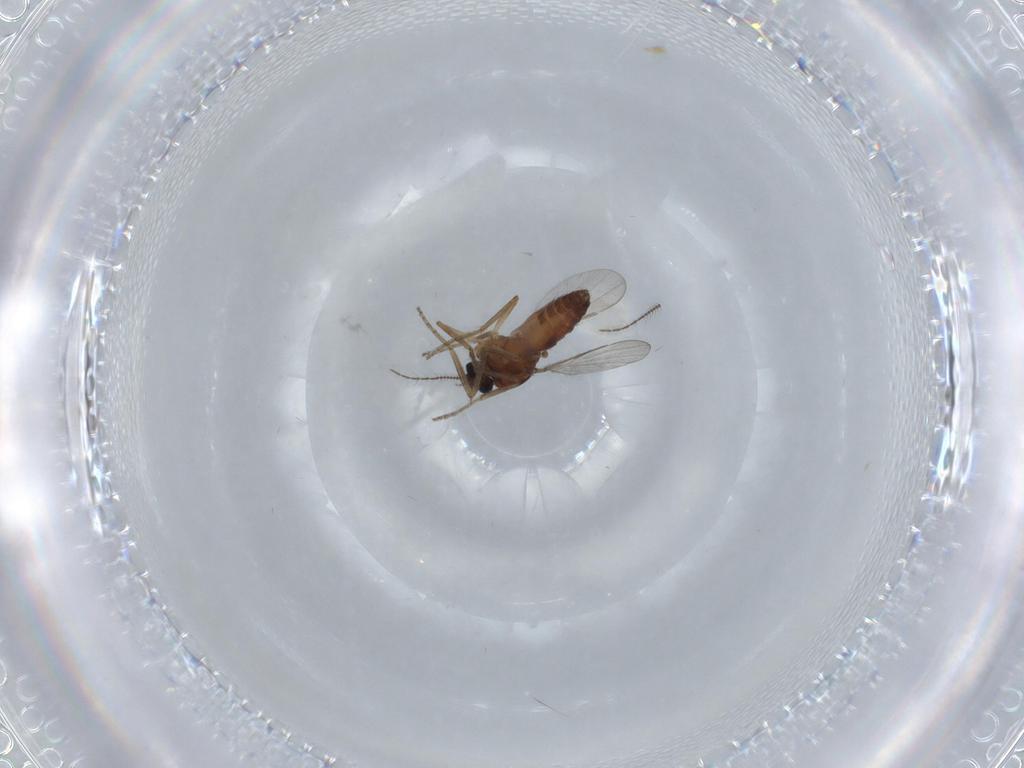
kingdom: Animalia
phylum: Arthropoda
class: Insecta
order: Diptera
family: Ceratopogonidae
